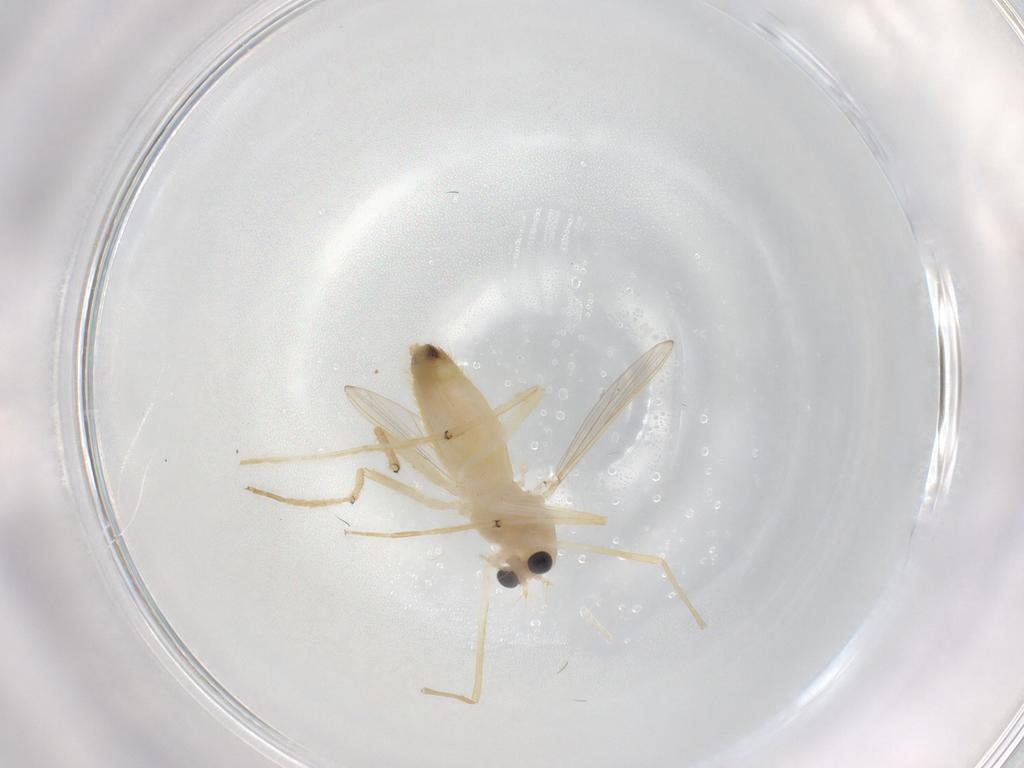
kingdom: Animalia
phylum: Arthropoda
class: Insecta
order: Diptera
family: Chironomidae
